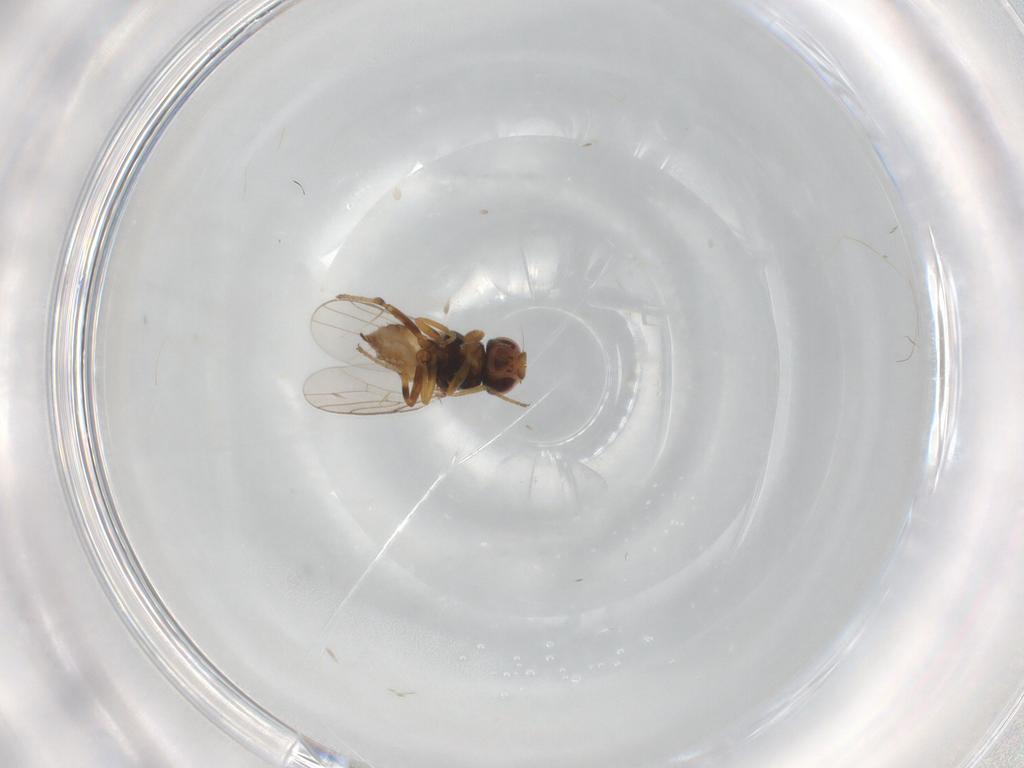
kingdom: Animalia
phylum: Arthropoda
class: Insecta
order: Diptera
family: Chloropidae
